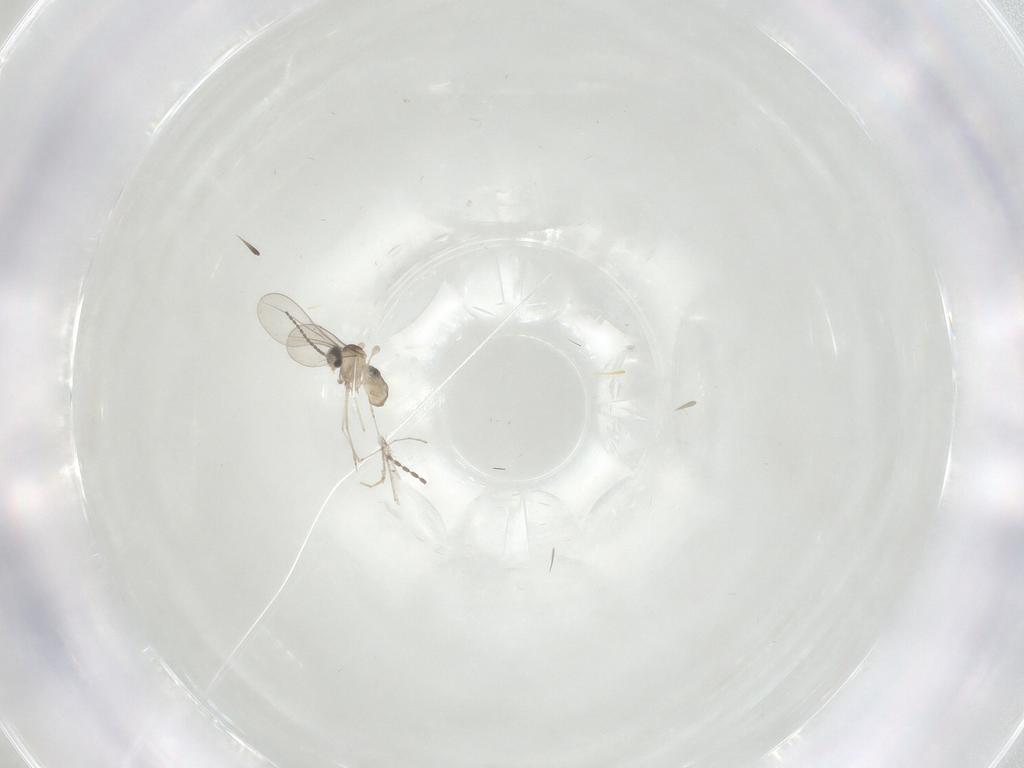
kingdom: Animalia
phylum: Arthropoda
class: Insecta
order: Diptera
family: Cecidomyiidae
